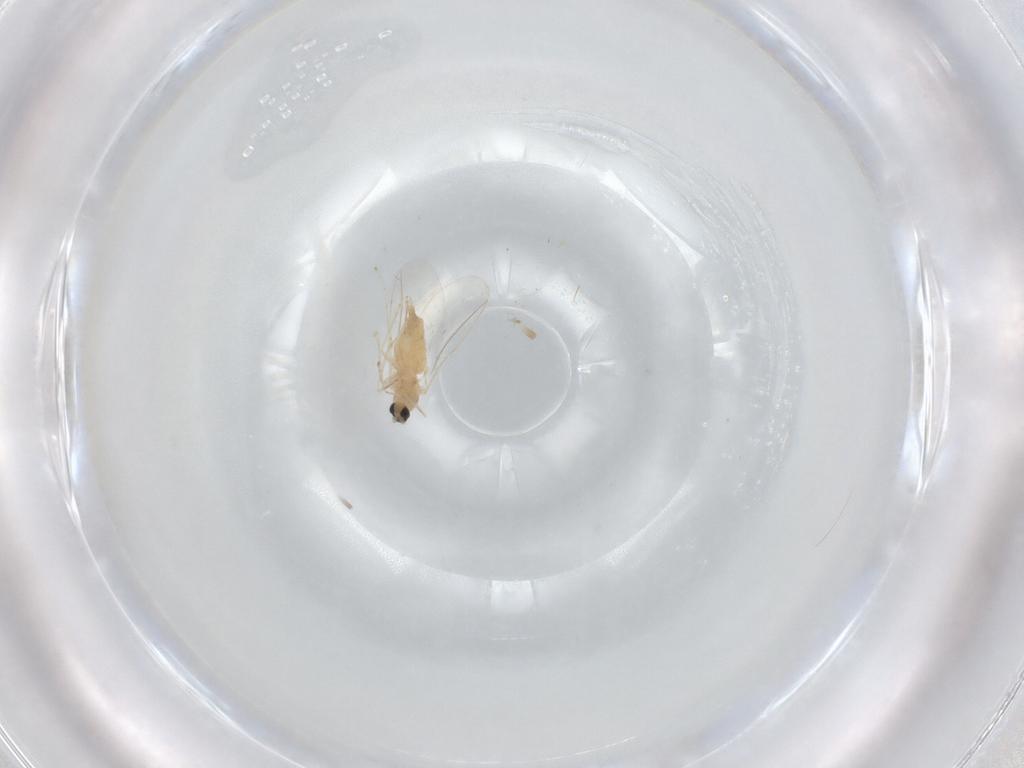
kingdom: Animalia
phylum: Arthropoda
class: Insecta
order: Diptera
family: Cecidomyiidae
